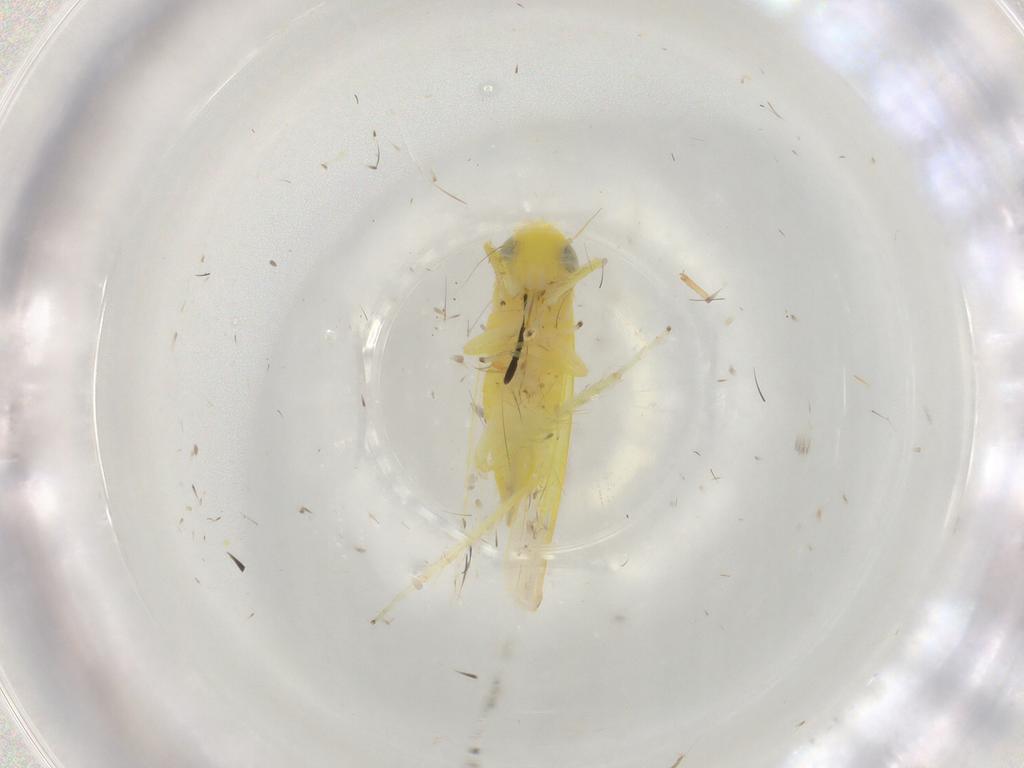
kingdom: Animalia
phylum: Arthropoda
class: Insecta
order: Hemiptera
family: Cicadellidae
